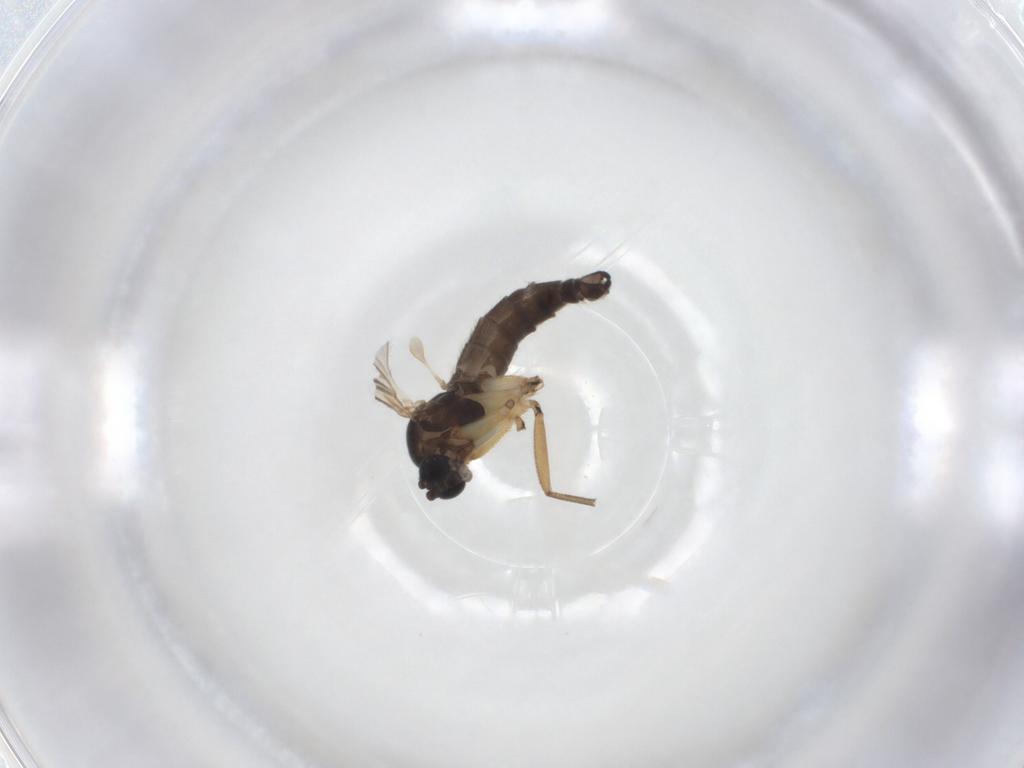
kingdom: Animalia
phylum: Arthropoda
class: Insecta
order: Diptera
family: Sciaridae
